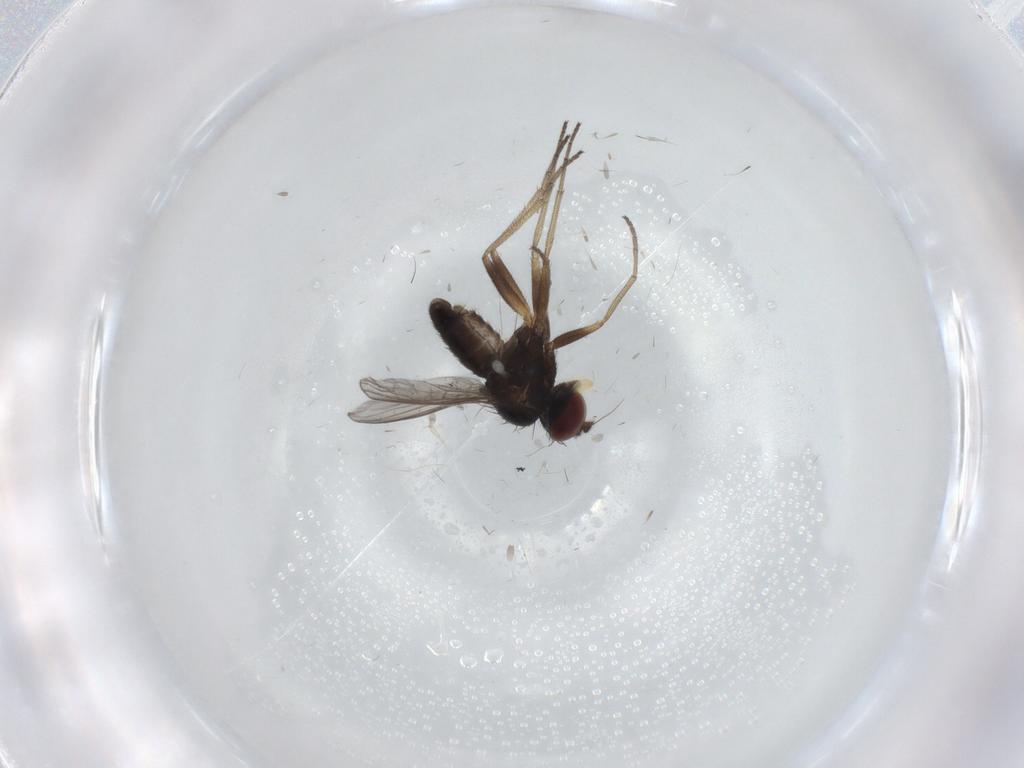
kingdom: Animalia
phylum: Arthropoda
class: Insecta
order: Diptera
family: Dolichopodidae
